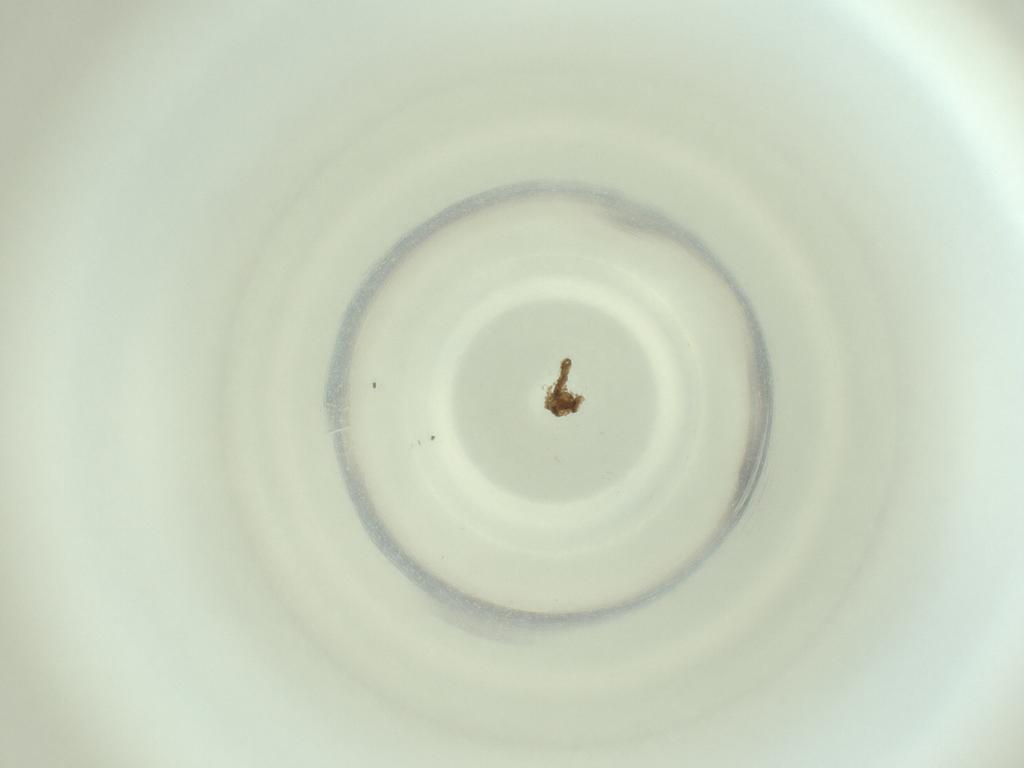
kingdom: Animalia
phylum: Arthropoda
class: Insecta
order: Diptera
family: Cecidomyiidae
